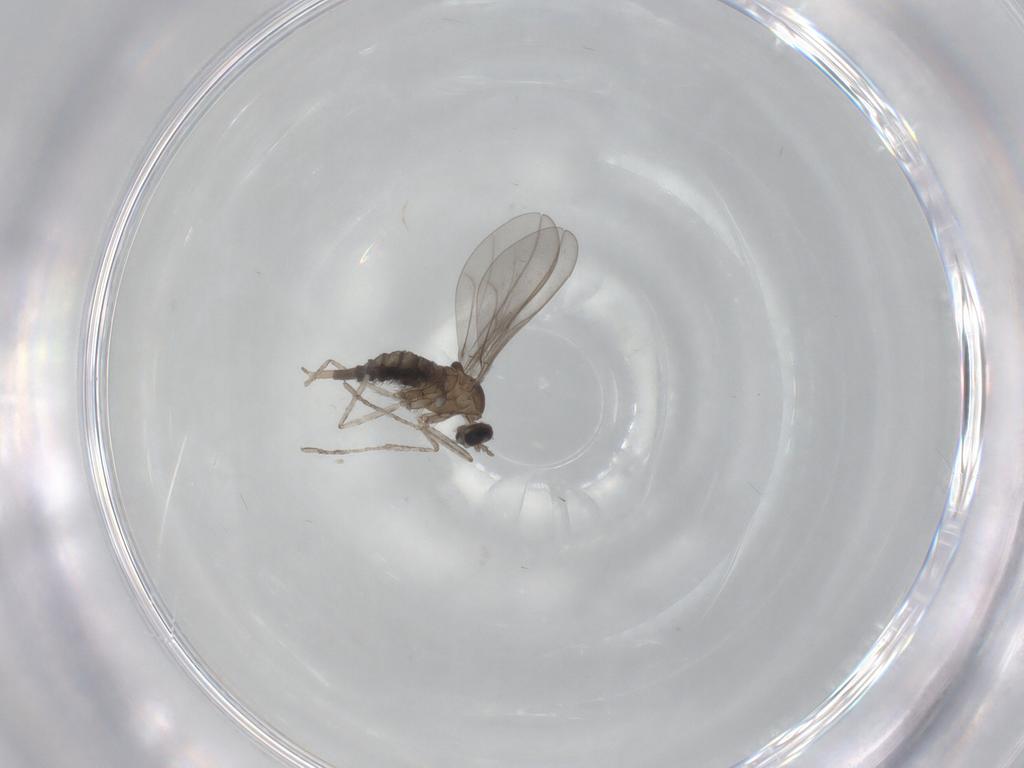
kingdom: Animalia
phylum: Arthropoda
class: Insecta
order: Diptera
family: Cecidomyiidae
